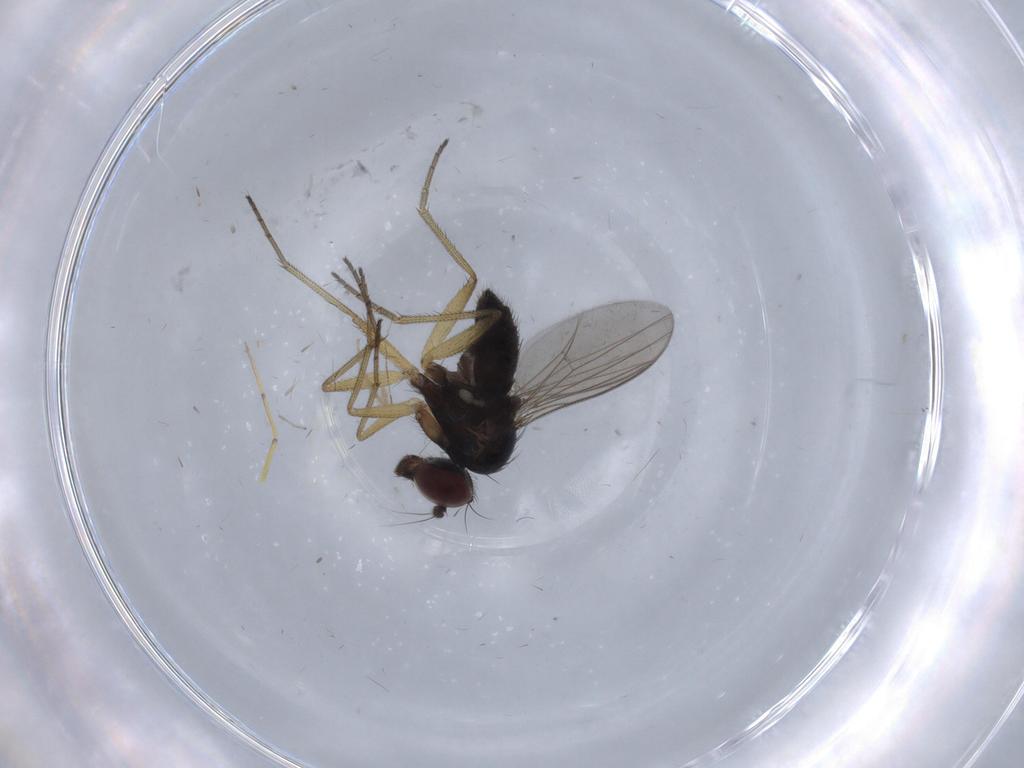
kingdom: Animalia
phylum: Arthropoda
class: Insecta
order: Diptera
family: Dolichopodidae
